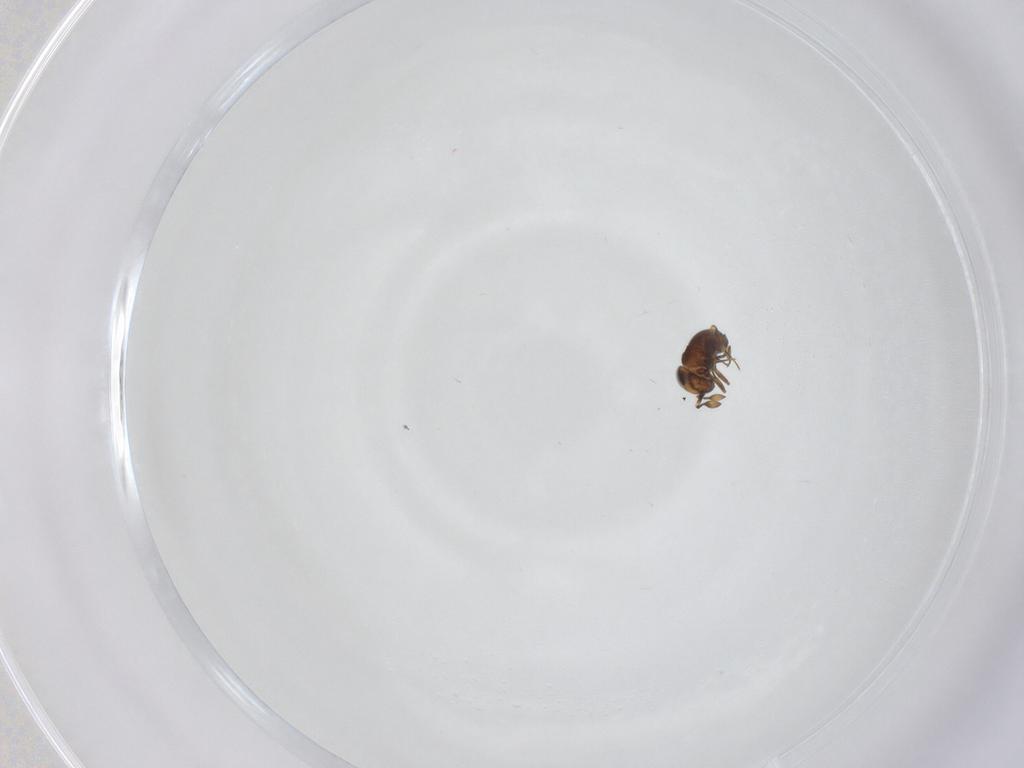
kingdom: Animalia
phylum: Arthropoda
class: Insecta
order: Hymenoptera
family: Scelionidae
